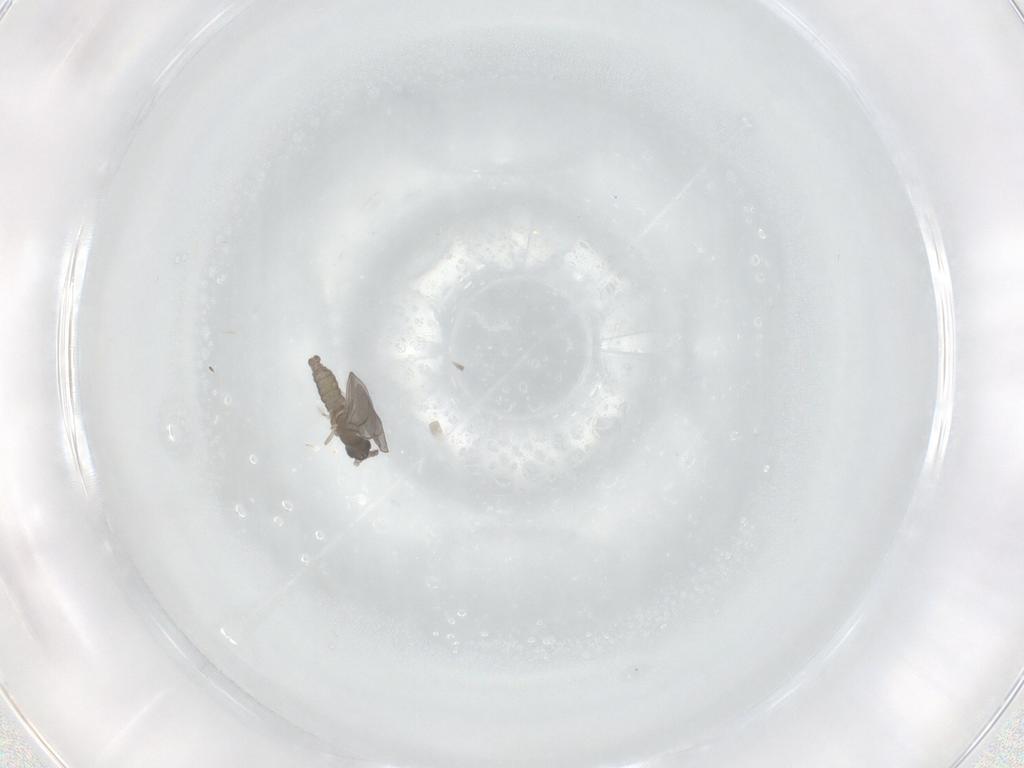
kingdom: Animalia
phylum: Arthropoda
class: Insecta
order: Diptera
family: Cecidomyiidae
